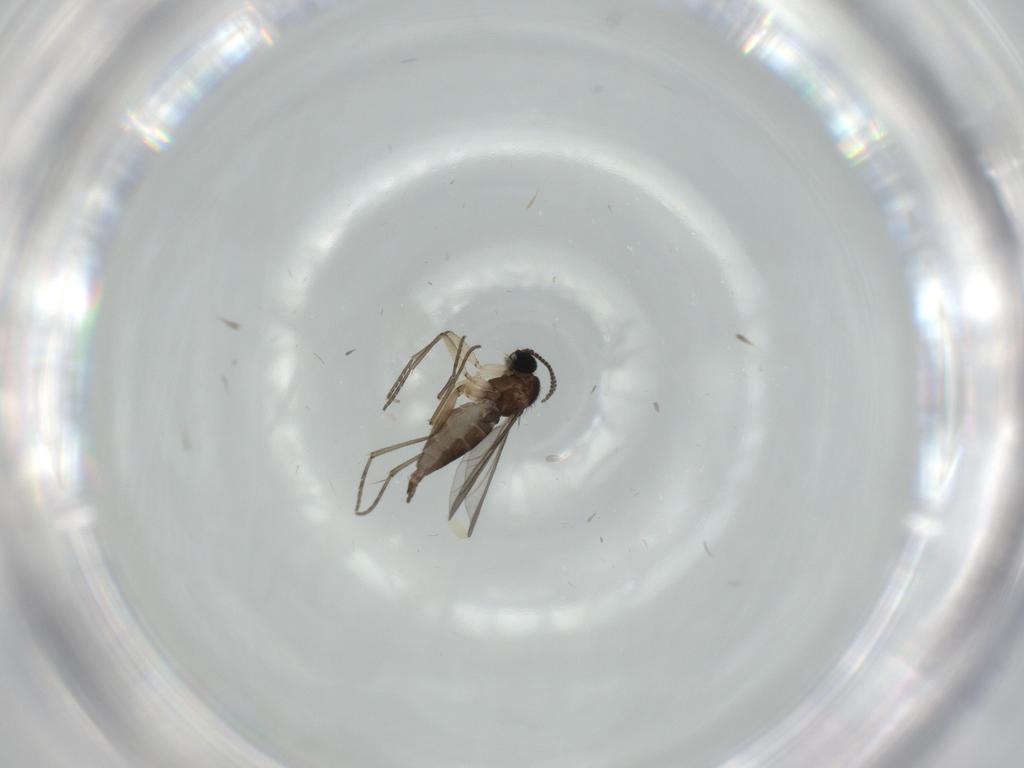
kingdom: Animalia
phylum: Arthropoda
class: Insecta
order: Diptera
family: Sciaridae
